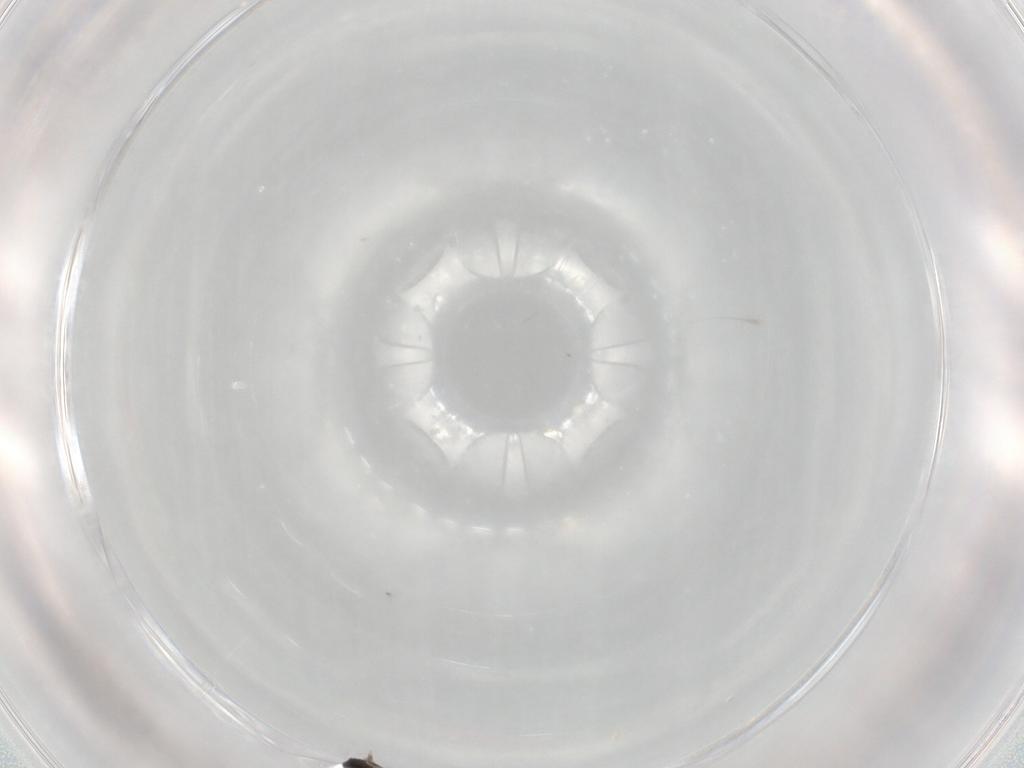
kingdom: Animalia
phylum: Arthropoda
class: Insecta
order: Hymenoptera
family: Mymaridae
